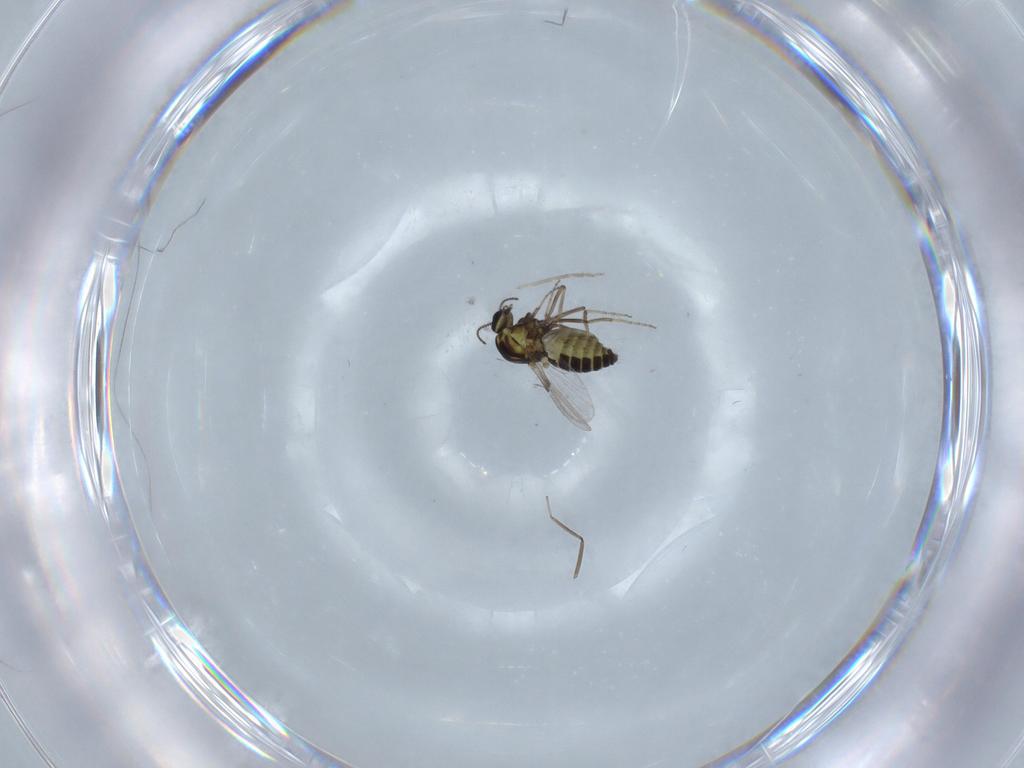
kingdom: Animalia
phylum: Arthropoda
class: Insecta
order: Diptera
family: Ceratopogonidae
